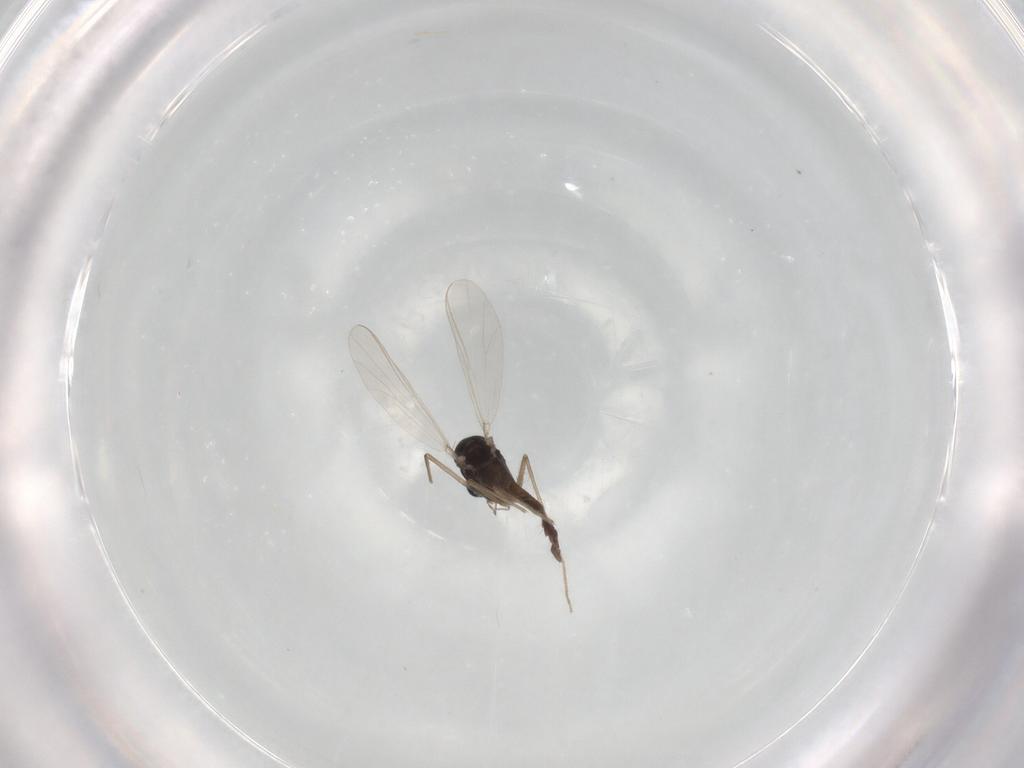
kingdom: Animalia
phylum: Arthropoda
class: Insecta
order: Diptera
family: Chironomidae
